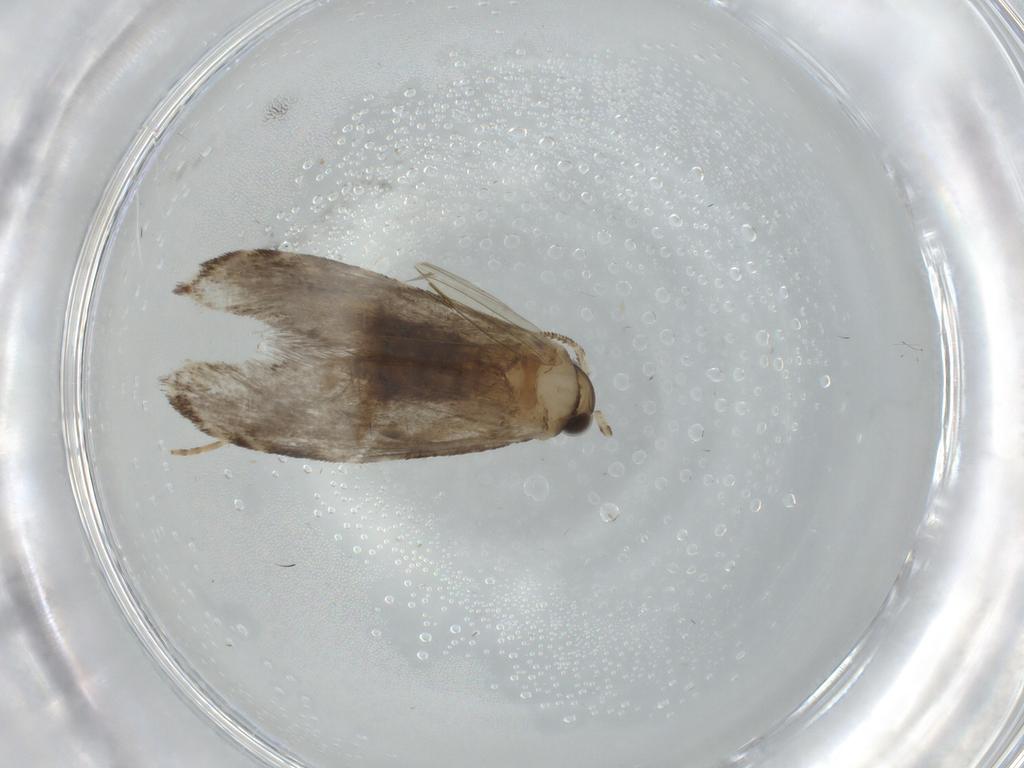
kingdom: Animalia
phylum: Arthropoda
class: Insecta
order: Lepidoptera
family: Tineidae
